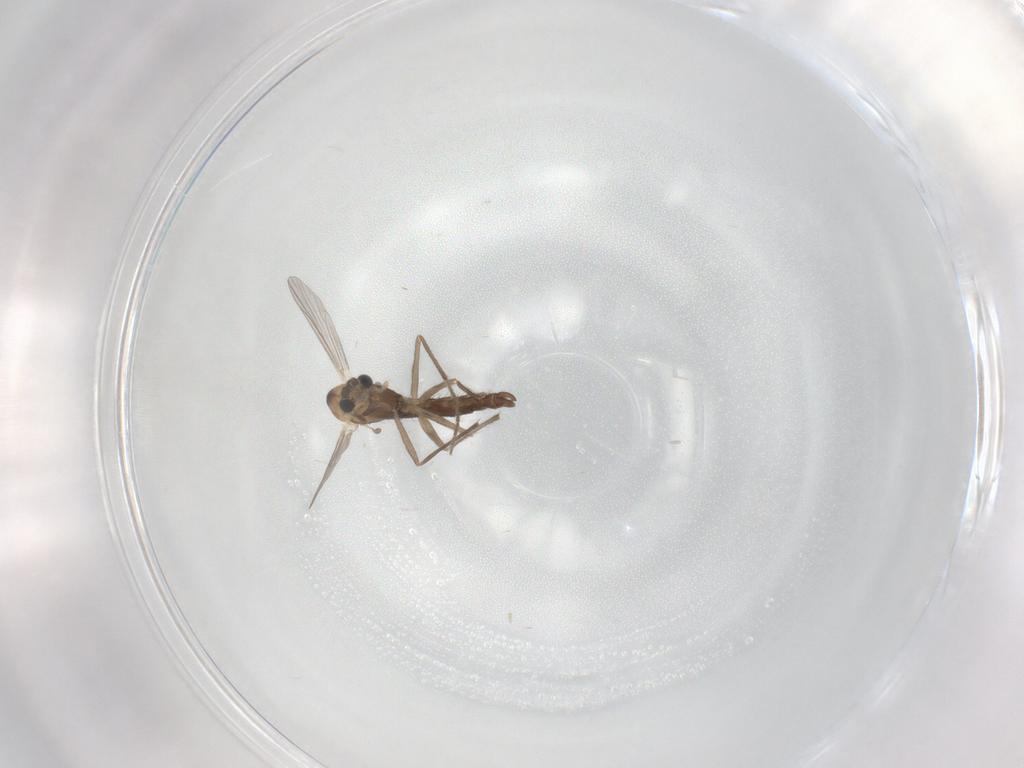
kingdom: Animalia
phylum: Arthropoda
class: Insecta
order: Diptera
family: Chironomidae
